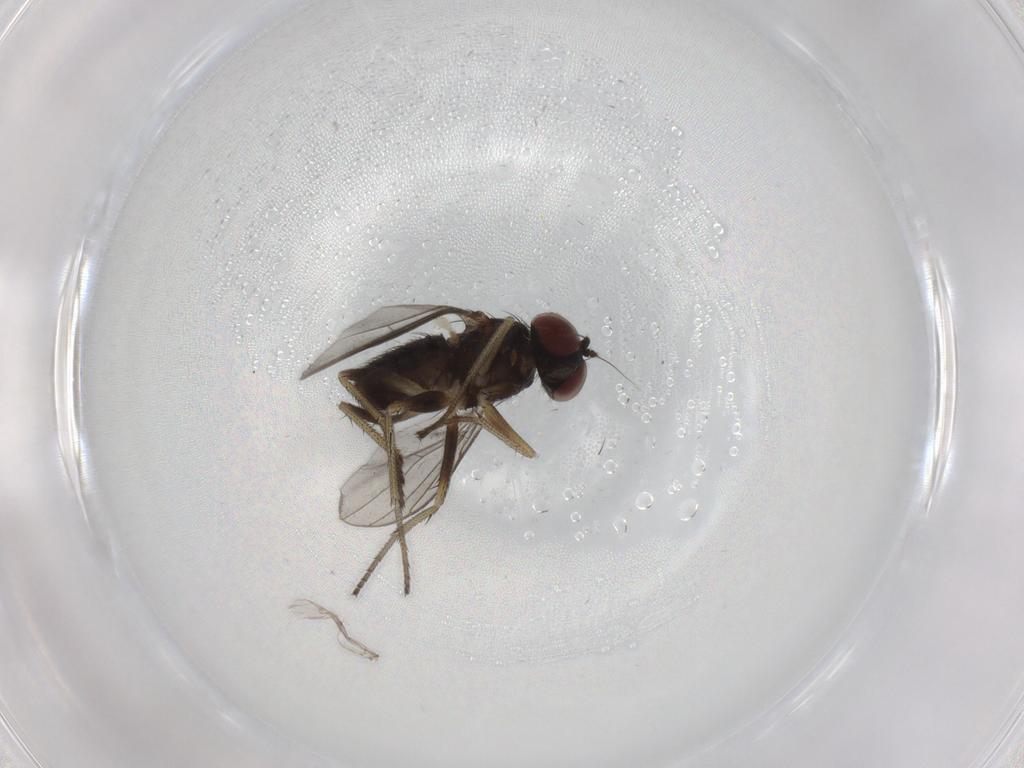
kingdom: Animalia
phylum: Arthropoda
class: Insecta
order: Diptera
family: Cecidomyiidae
